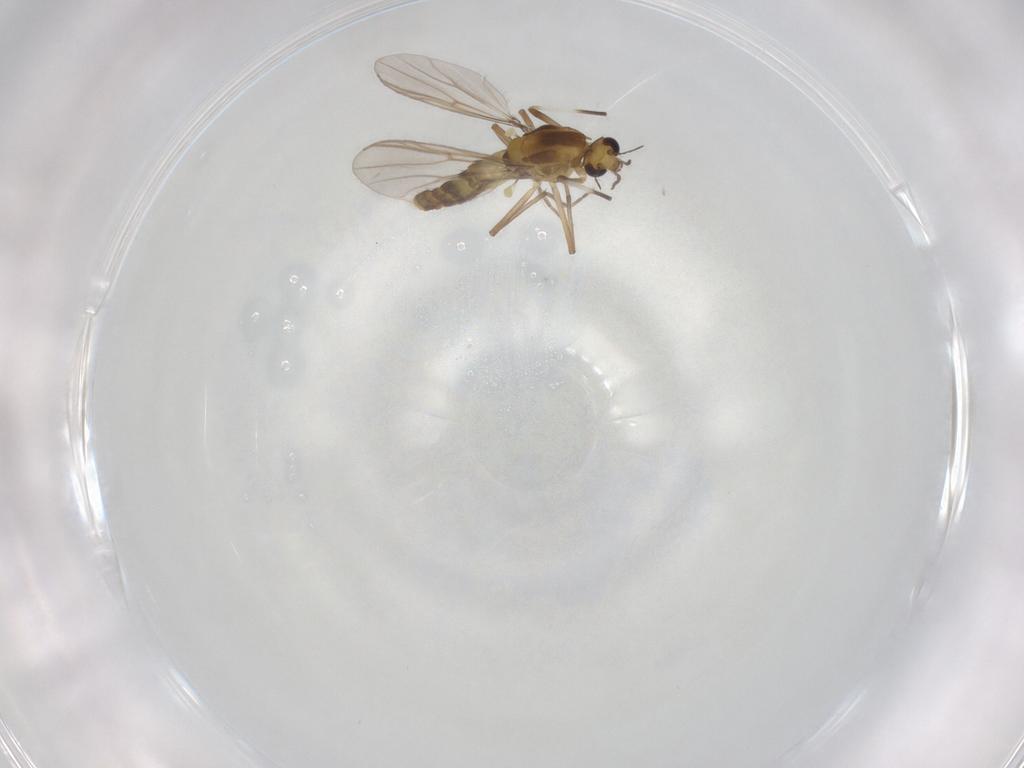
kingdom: Animalia
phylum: Arthropoda
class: Insecta
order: Diptera
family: Chironomidae
